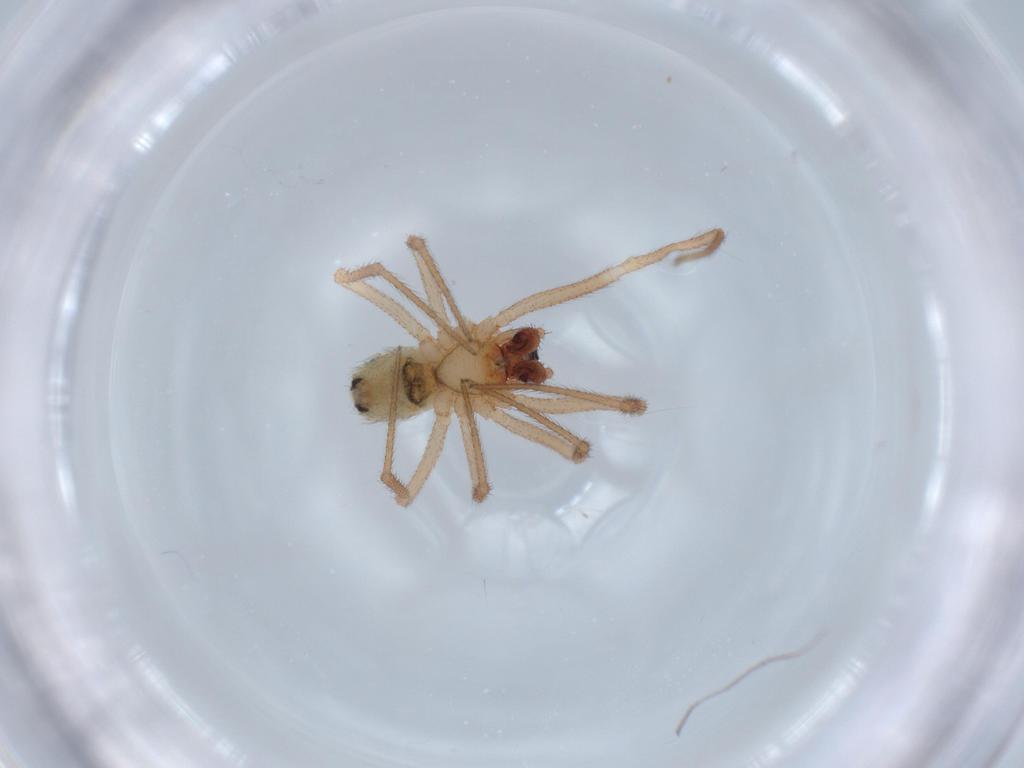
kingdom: Animalia
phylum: Arthropoda
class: Arachnida
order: Araneae
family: Theridiidae
